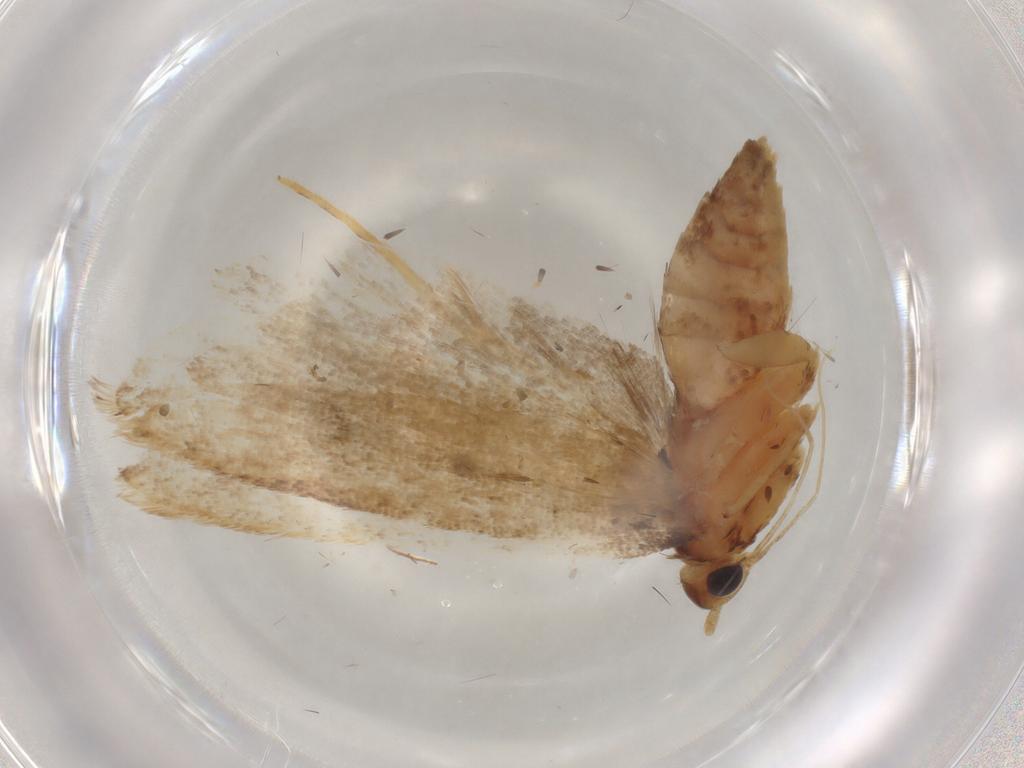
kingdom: Animalia
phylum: Arthropoda
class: Insecta
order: Lepidoptera
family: Lecithoceridae
